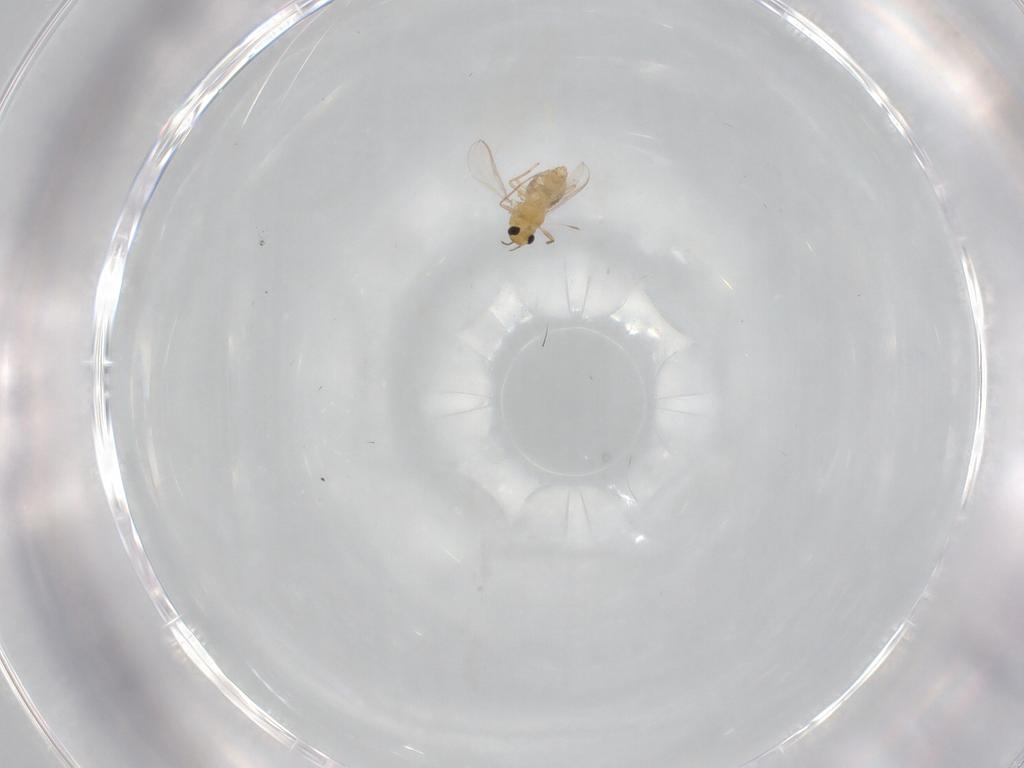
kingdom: Animalia
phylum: Arthropoda
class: Insecta
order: Diptera
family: Chironomidae
